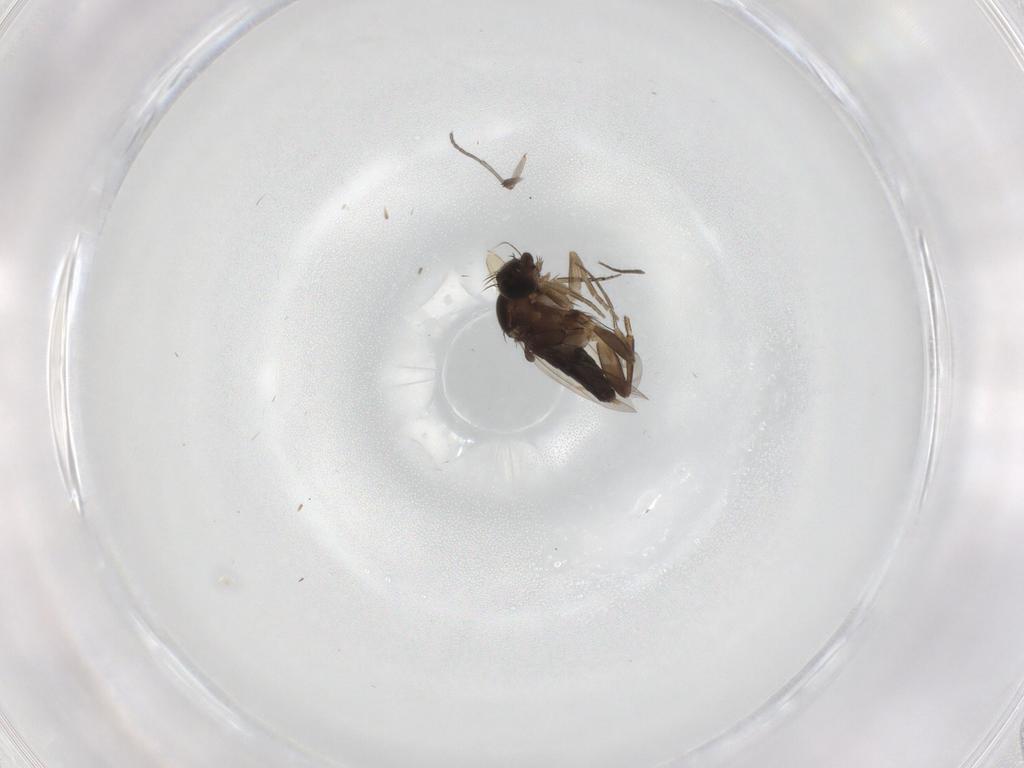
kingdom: Animalia
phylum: Arthropoda
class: Insecta
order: Diptera
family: Phoridae
